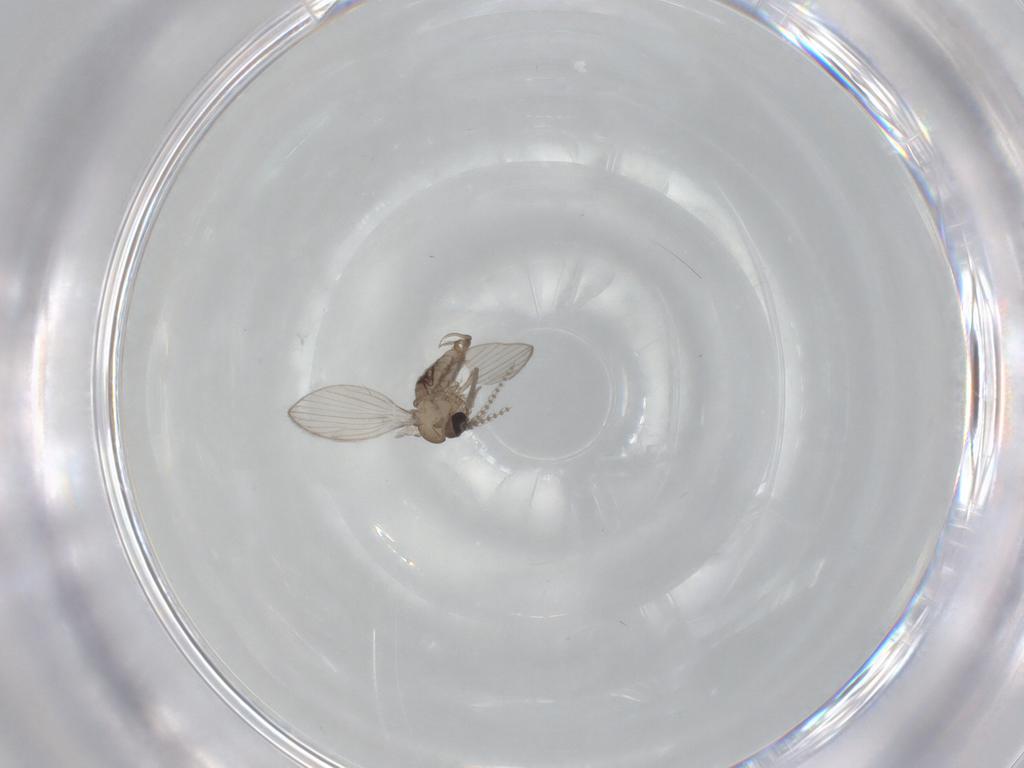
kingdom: Animalia
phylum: Arthropoda
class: Insecta
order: Diptera
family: Psychodidae
